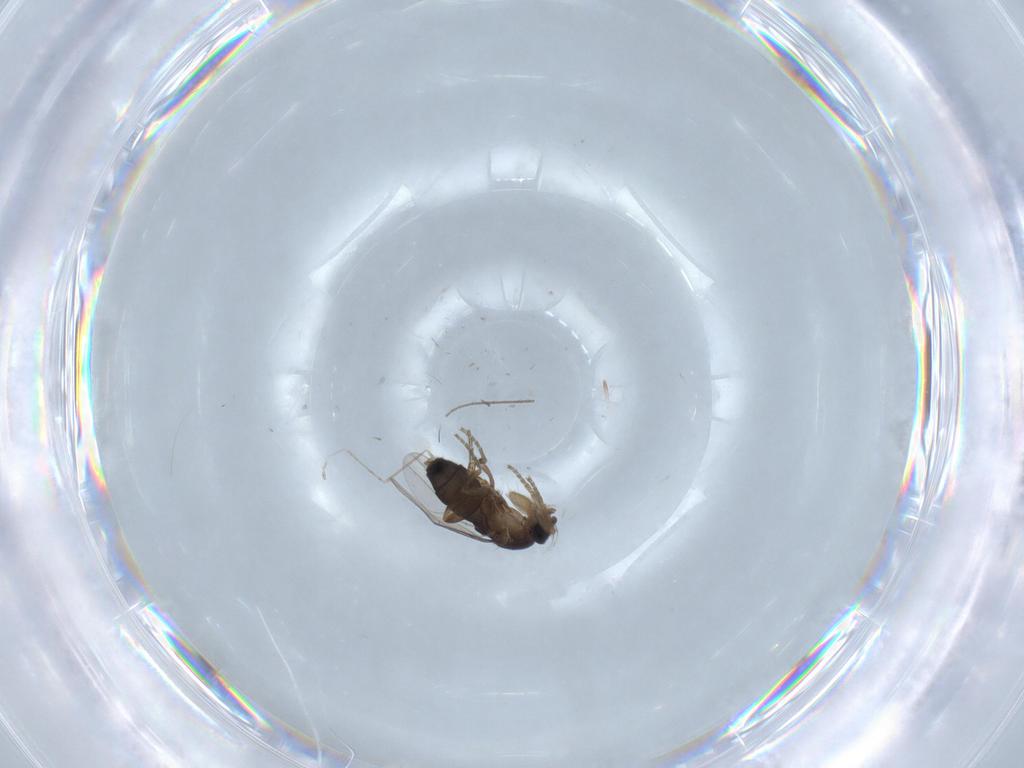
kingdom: Animalia
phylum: Arthropoda
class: Insecta
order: Diptera
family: Chironomidae
